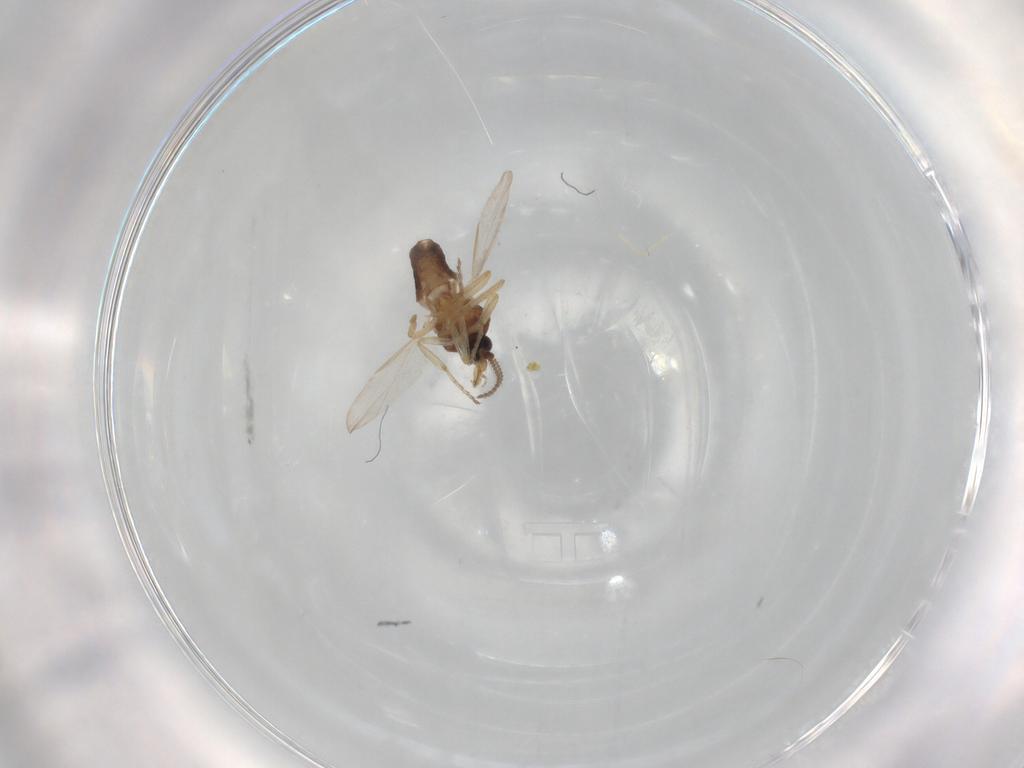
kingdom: Animalia
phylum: Arthropoda
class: Insecta
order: Diptera
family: Ceratopogonidae
